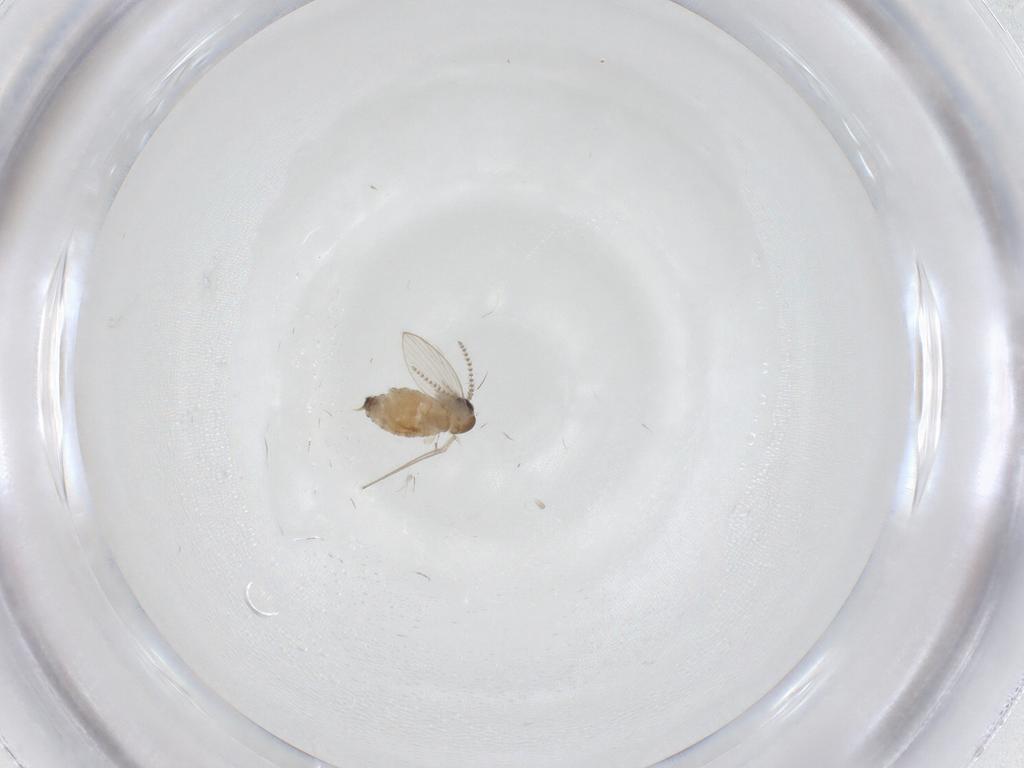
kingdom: Animalia
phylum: Arthropoda
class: Insecta
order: Diptera
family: Psychodidae
